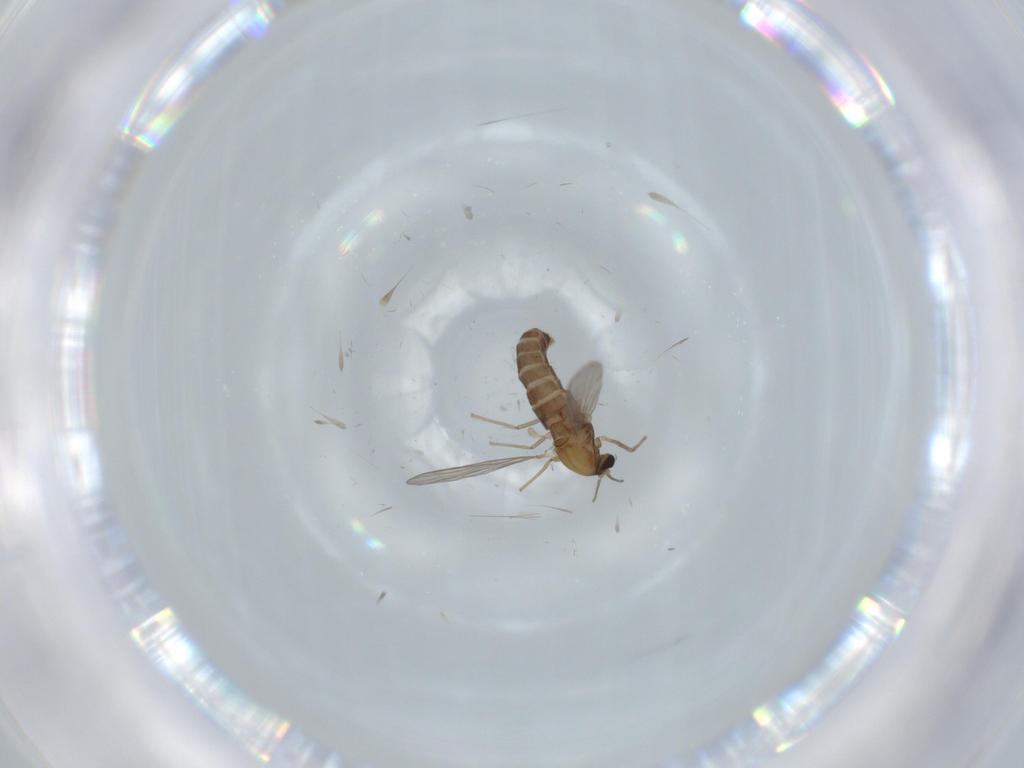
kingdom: Animalia
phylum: Arthropoda
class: Insecta
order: Diptera
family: Chironomidae
